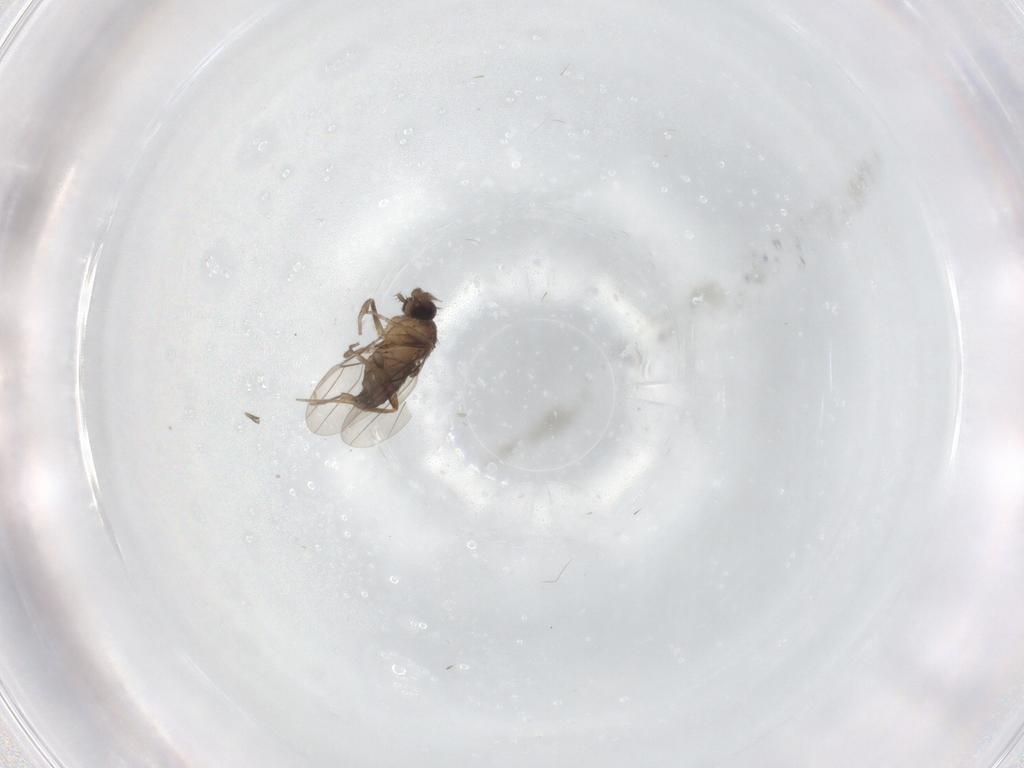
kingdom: Animalia
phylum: Arthropoda
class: Insecta
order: Diptera
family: Phoridae
